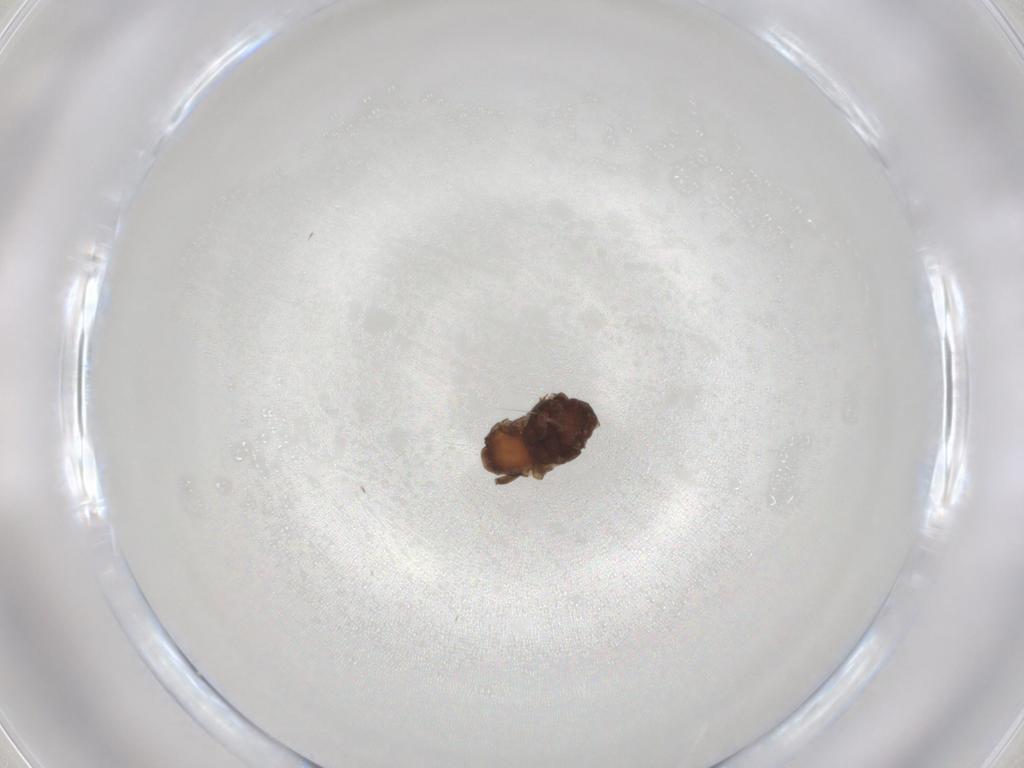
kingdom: Animalia
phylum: Arthropoda
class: Insecta
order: Hemiptera
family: Aphididae
